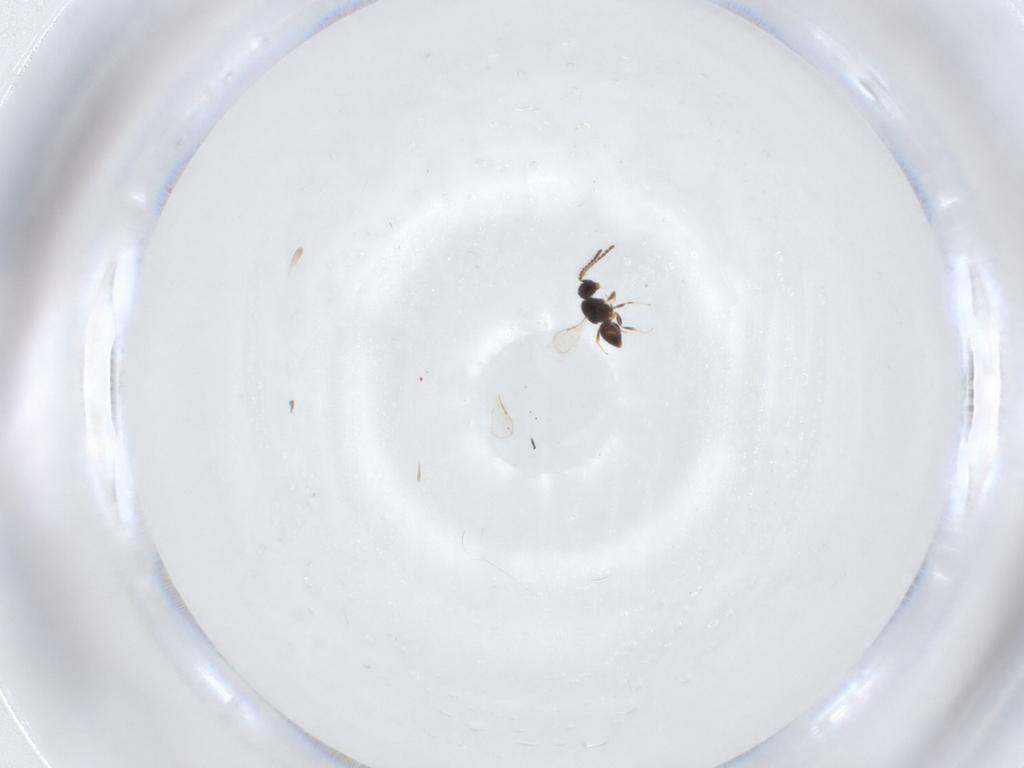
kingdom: Animalia
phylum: Arthropoda
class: Insecta
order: Hymenoptera
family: Ceraphronidae
